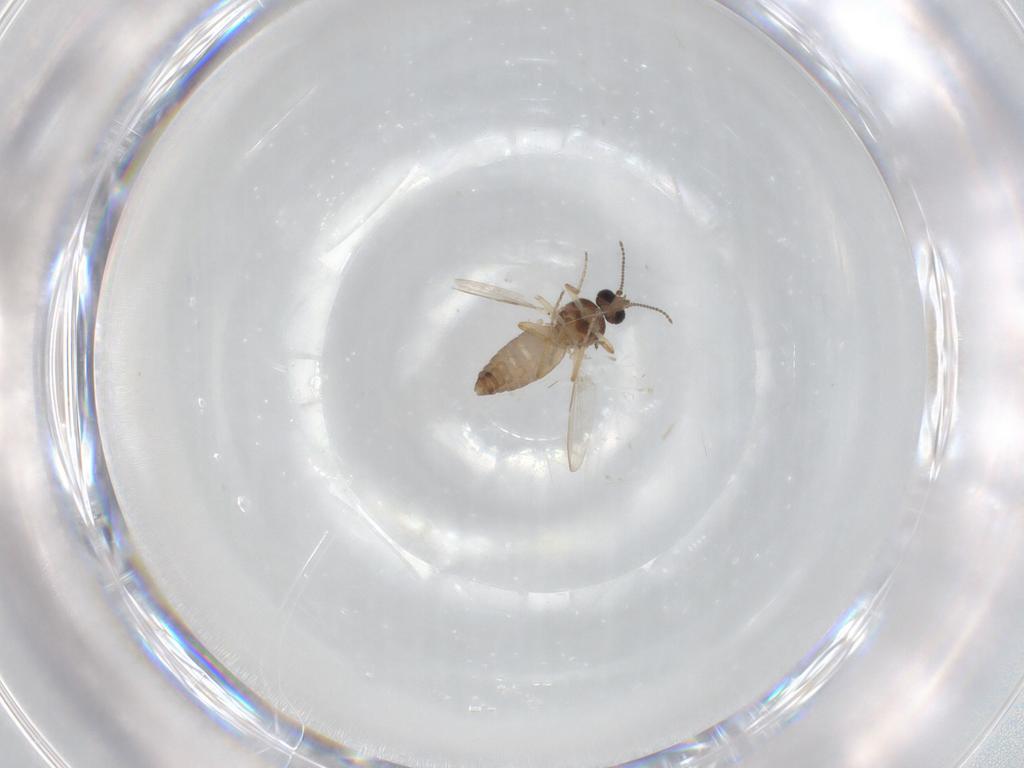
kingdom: Animalia
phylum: Arthropoda
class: Insecta
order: Diptera
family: Ceratopogonidae
